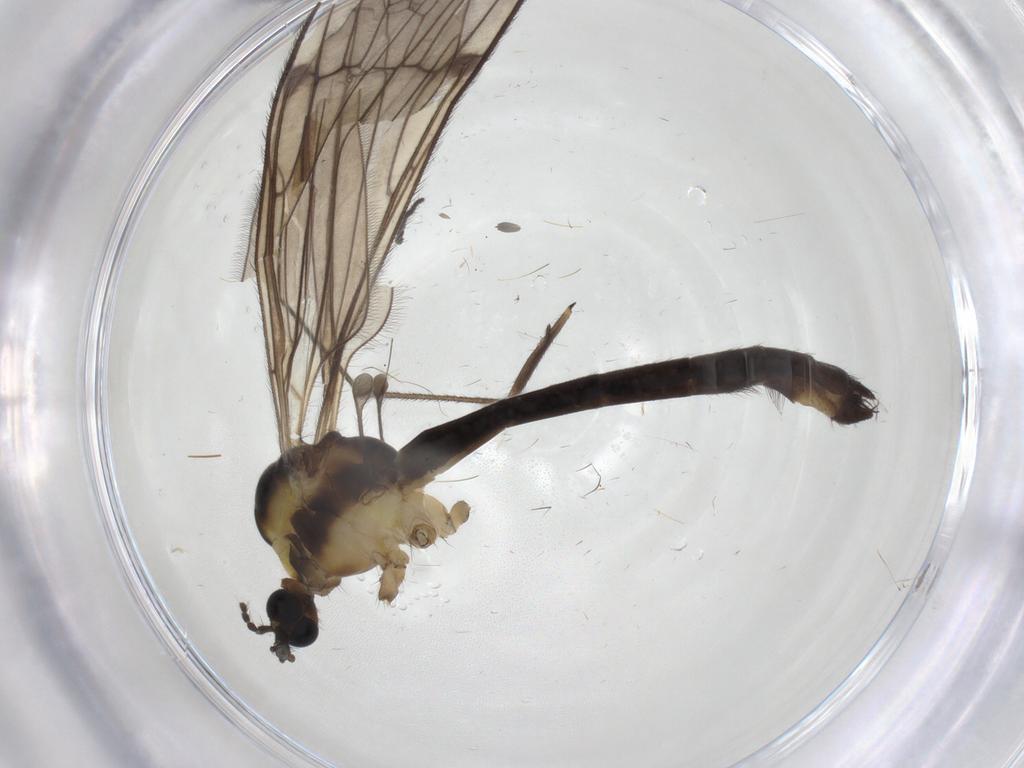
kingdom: Animalia
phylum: Arthropoda
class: Insecta
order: Diptera
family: Limoniidae
